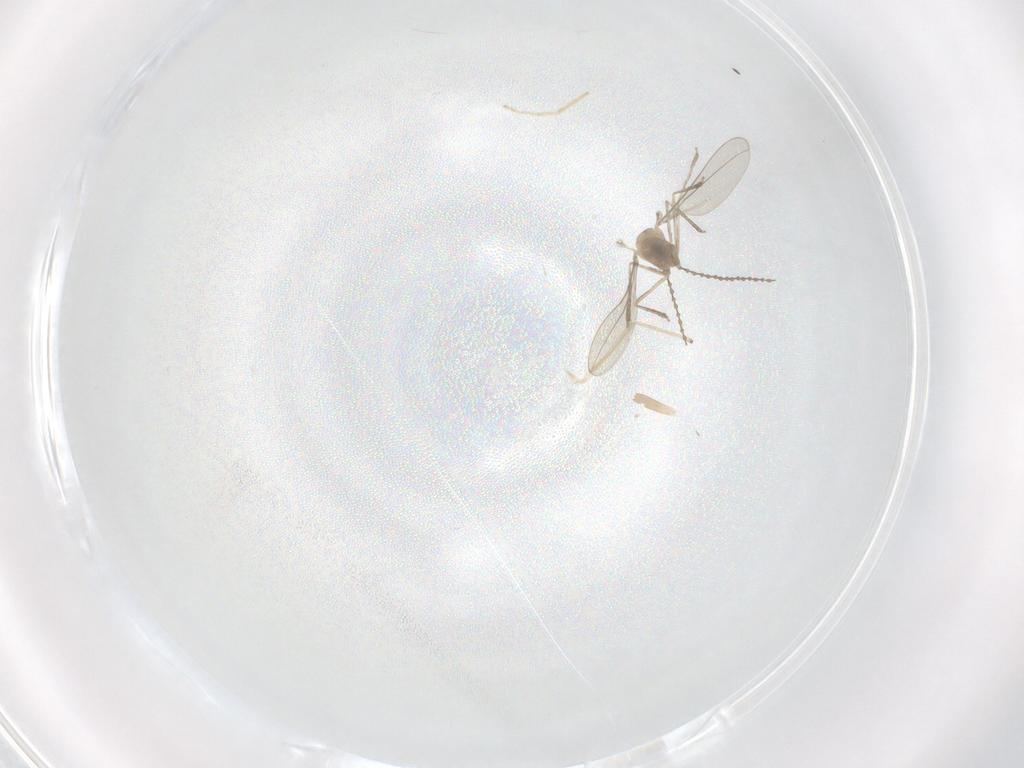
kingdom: Animalia
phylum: Arthropoda
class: Insecta
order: Diptera
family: Cecidomyiidae
